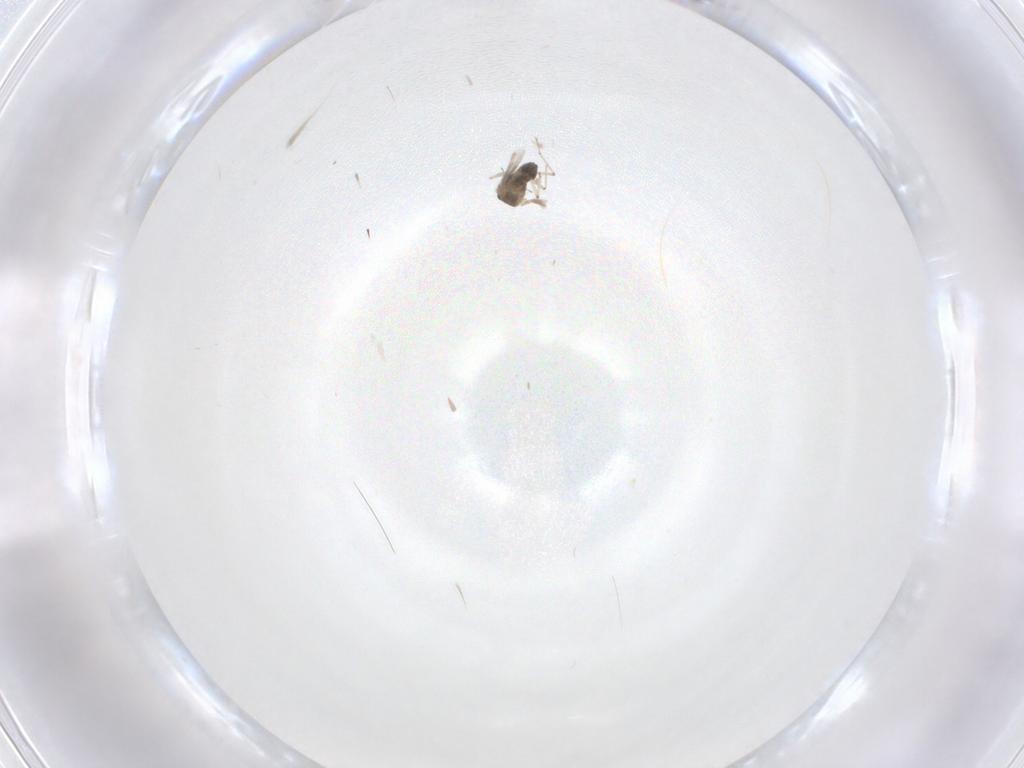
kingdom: Animalia
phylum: Arthropoda
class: Insecta
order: Diptera
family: Chironomidae
